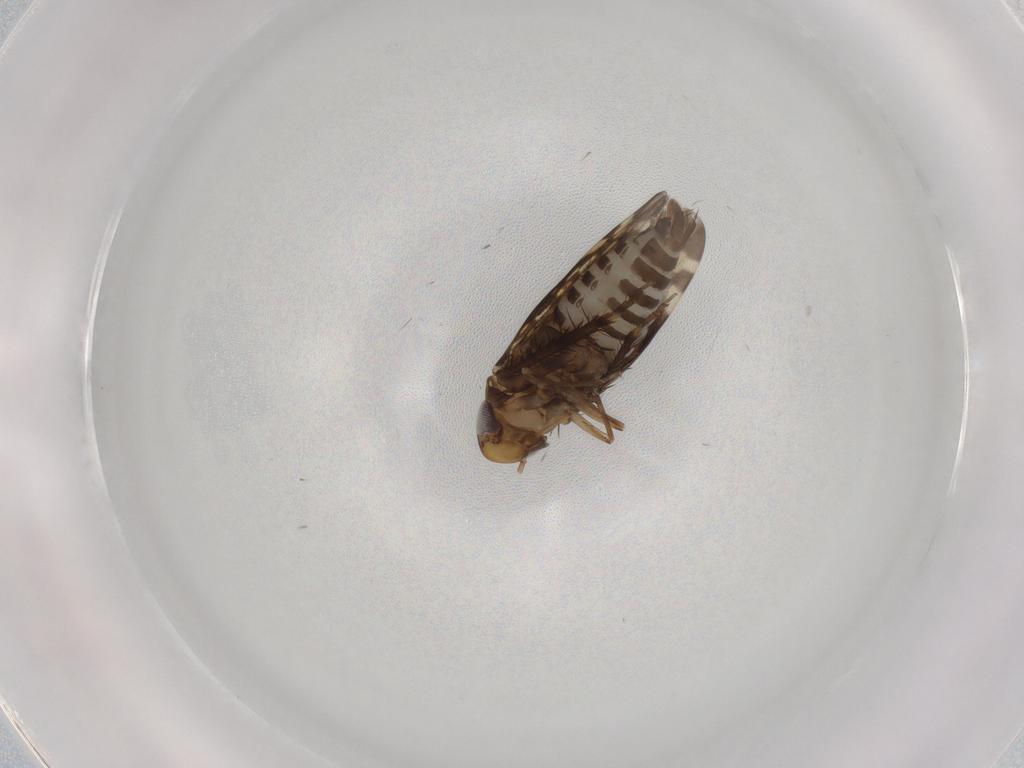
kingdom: Animalia
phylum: Arthropoda
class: Insecta
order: Hemiptera
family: Cicadellidae
